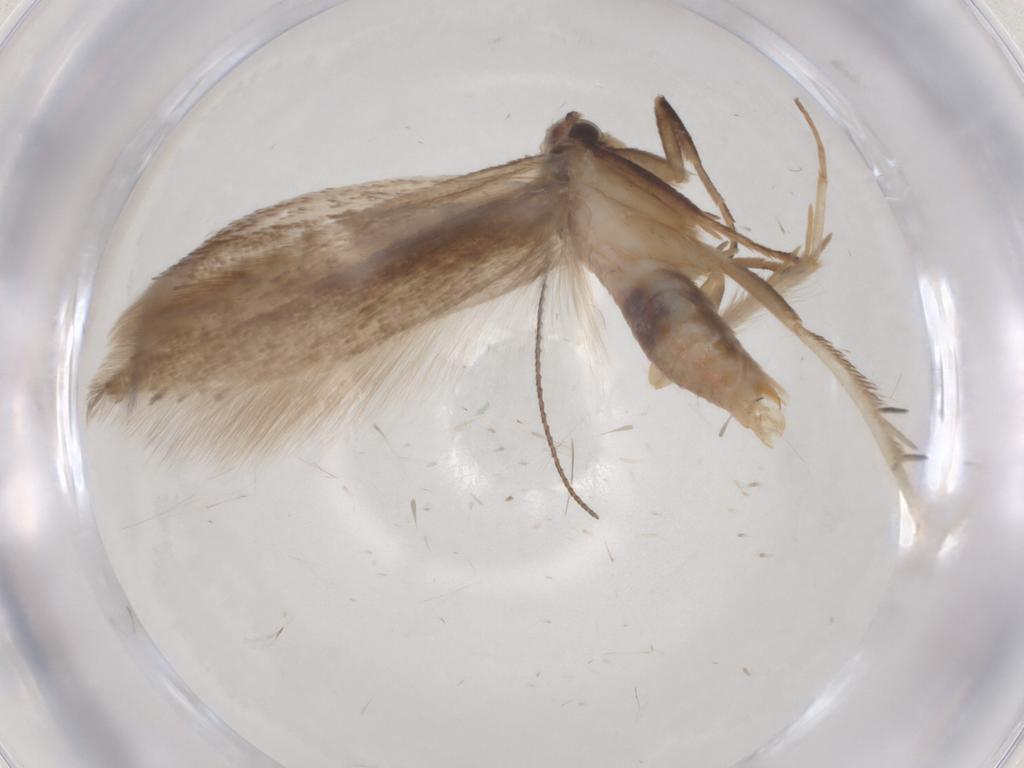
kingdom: Animalia
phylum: Arthropoda
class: Insecta
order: Lepidoptera
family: Gelechiidae
